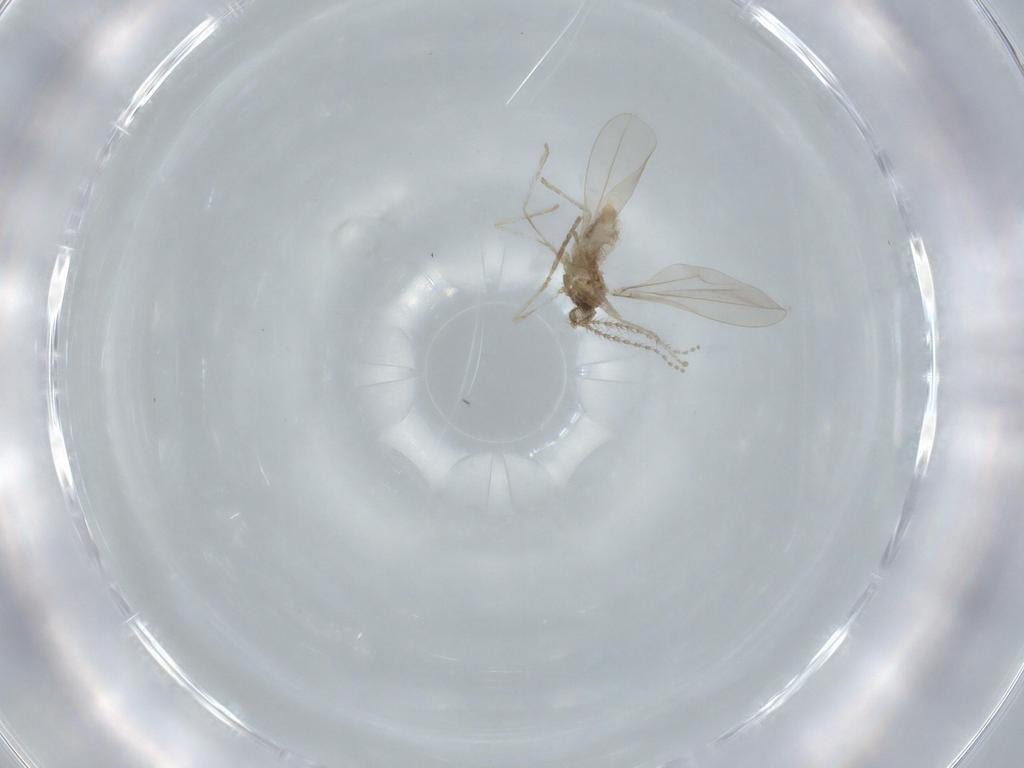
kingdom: Animalia
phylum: Arthropoda
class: Insecta
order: Diptera
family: Cecidomyiidae
